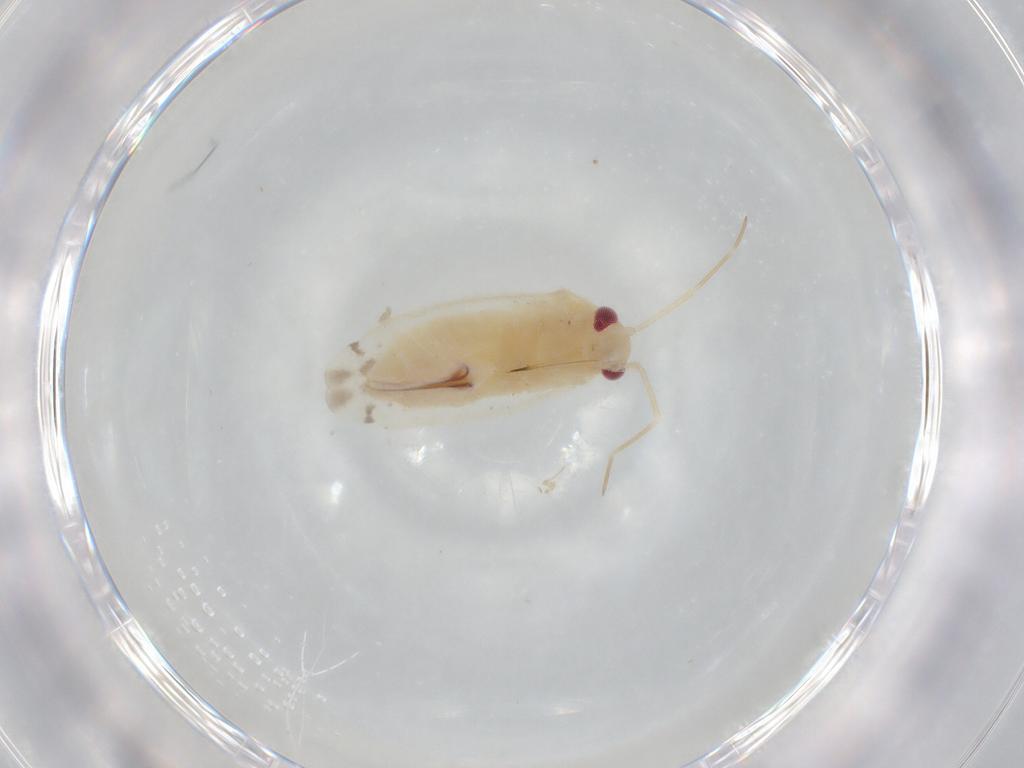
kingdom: Animalia
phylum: Arthropoda
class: Insecta
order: Hemiptera
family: Miridae
